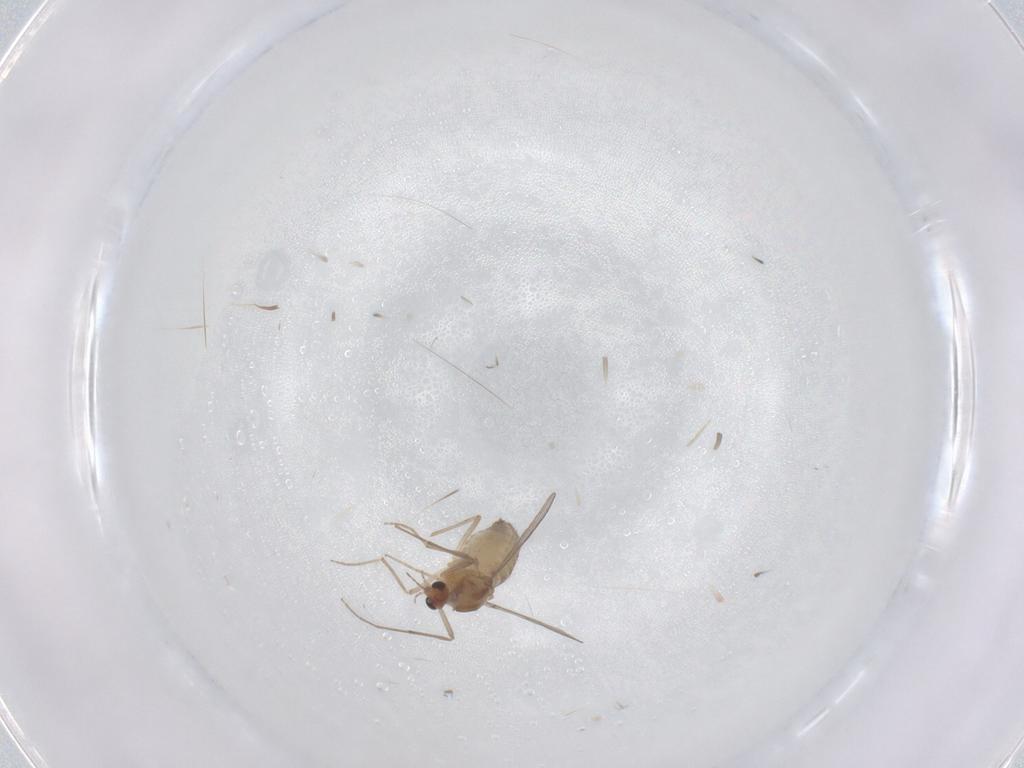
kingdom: Animalia
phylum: Arthropoda
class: Insecta
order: Diptera
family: Chironomidae
